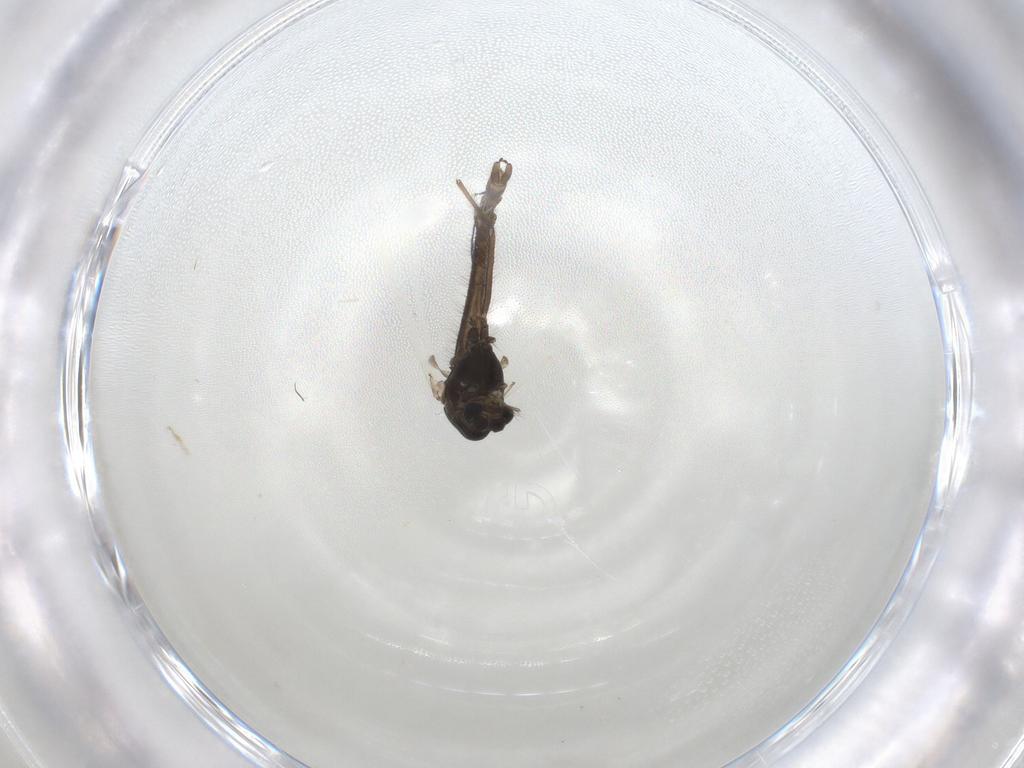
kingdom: Animalia
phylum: Arthropoda
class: Insecta
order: Diptera
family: Chironomidae
